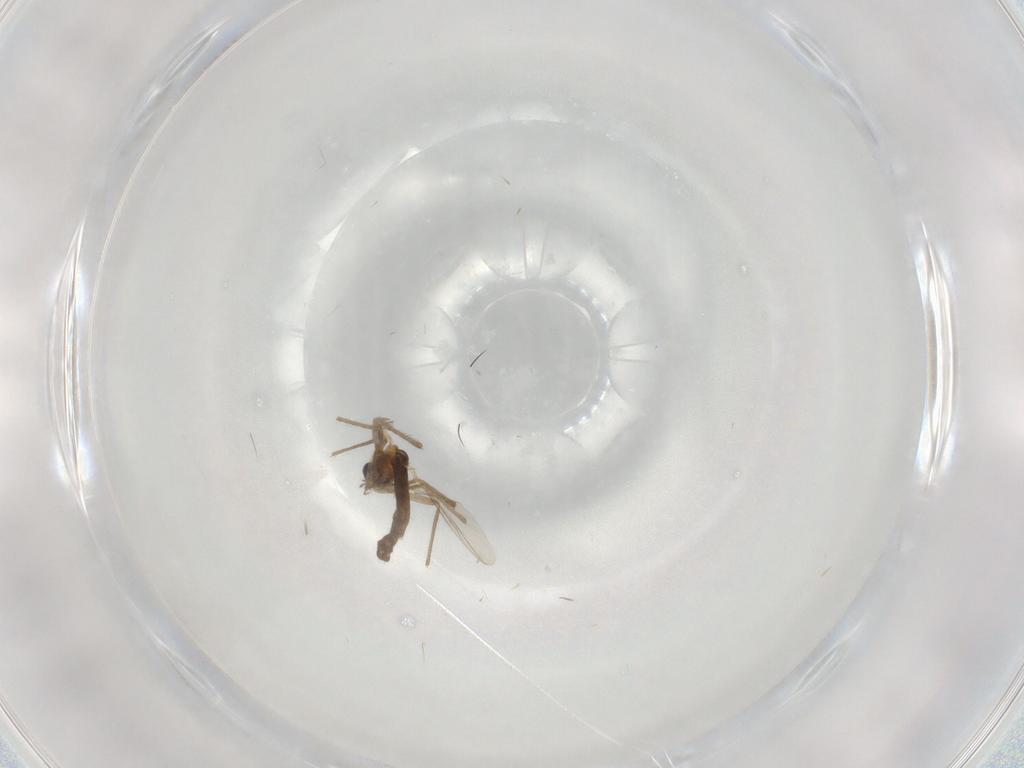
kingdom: Animalia
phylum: Arthropoda
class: Insecta
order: Diptera
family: Chironomidae
